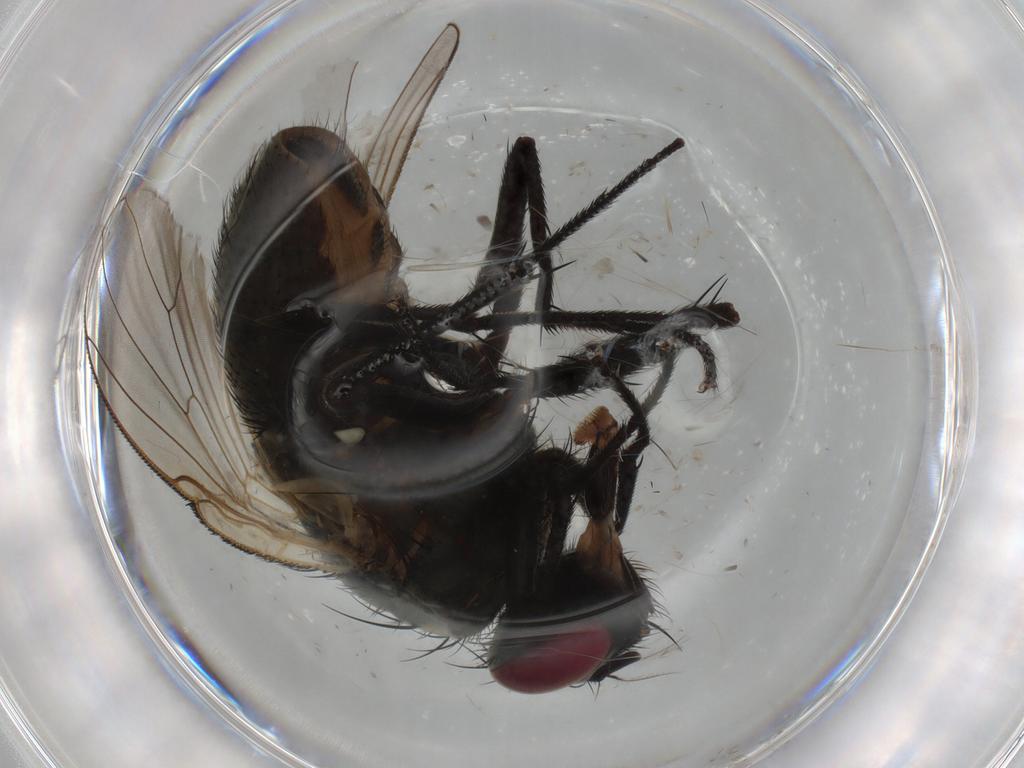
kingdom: Animalia
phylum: Arthropoda
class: Insecta
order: Diptera
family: Muscidae
